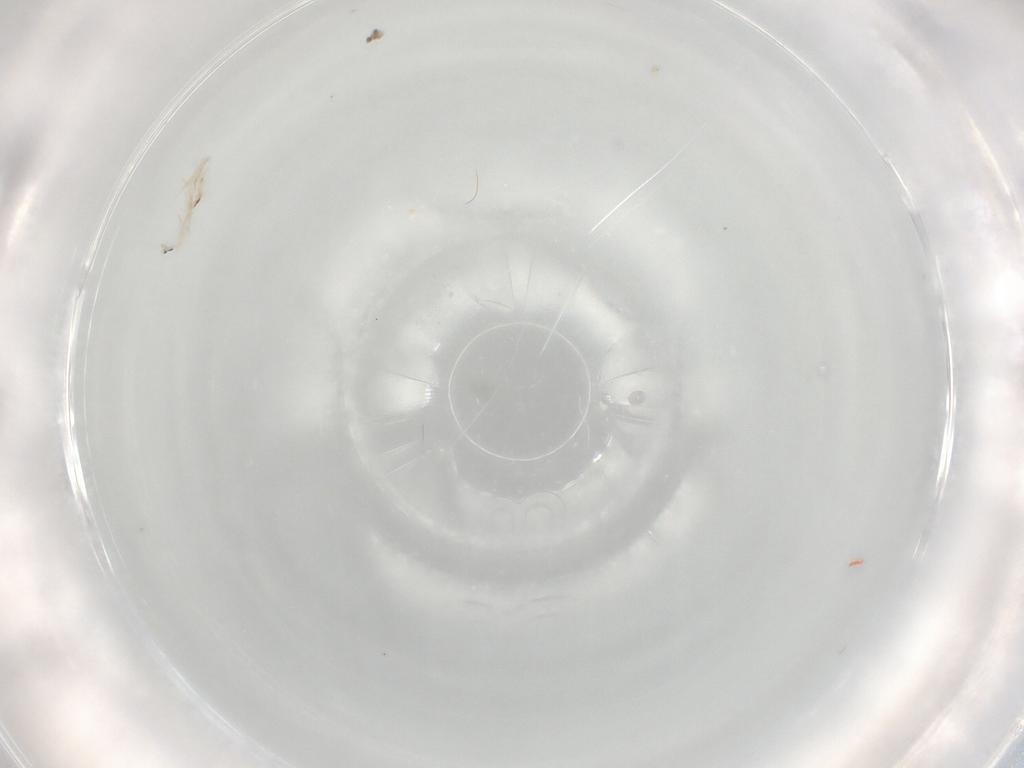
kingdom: Animalia
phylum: Arthropoda
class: Collembola
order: Entomobryomorpha
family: Entomobryidae
